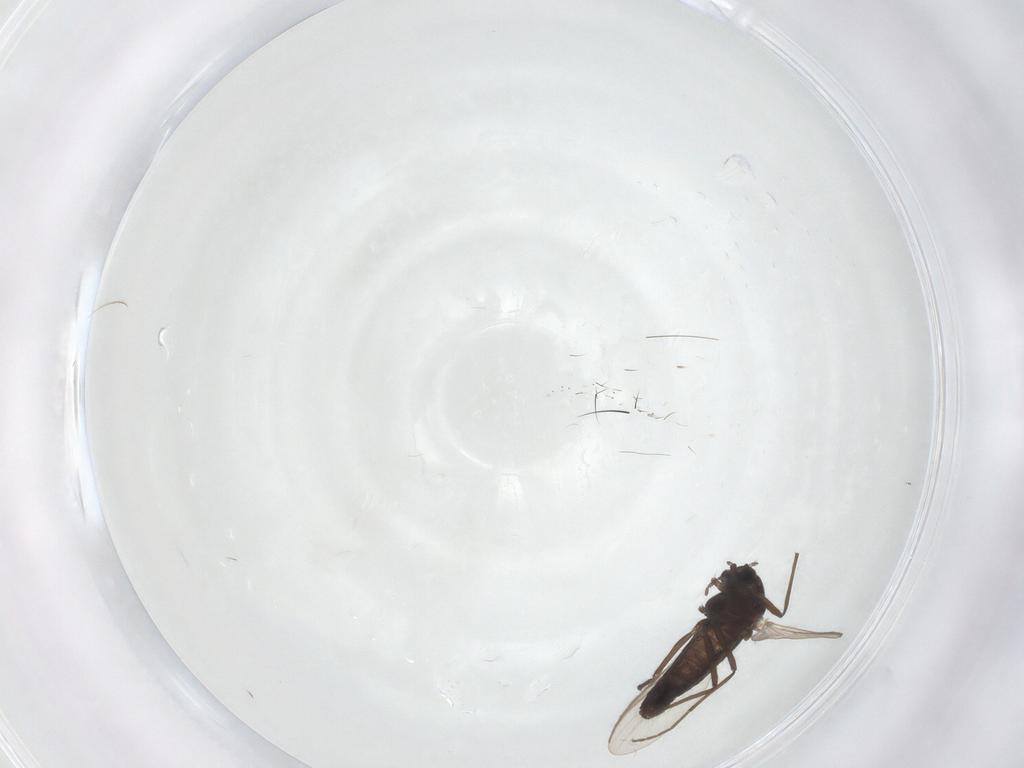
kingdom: Animalia
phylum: Arthropoda
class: Insecta
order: Diptera
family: Chironomidae
